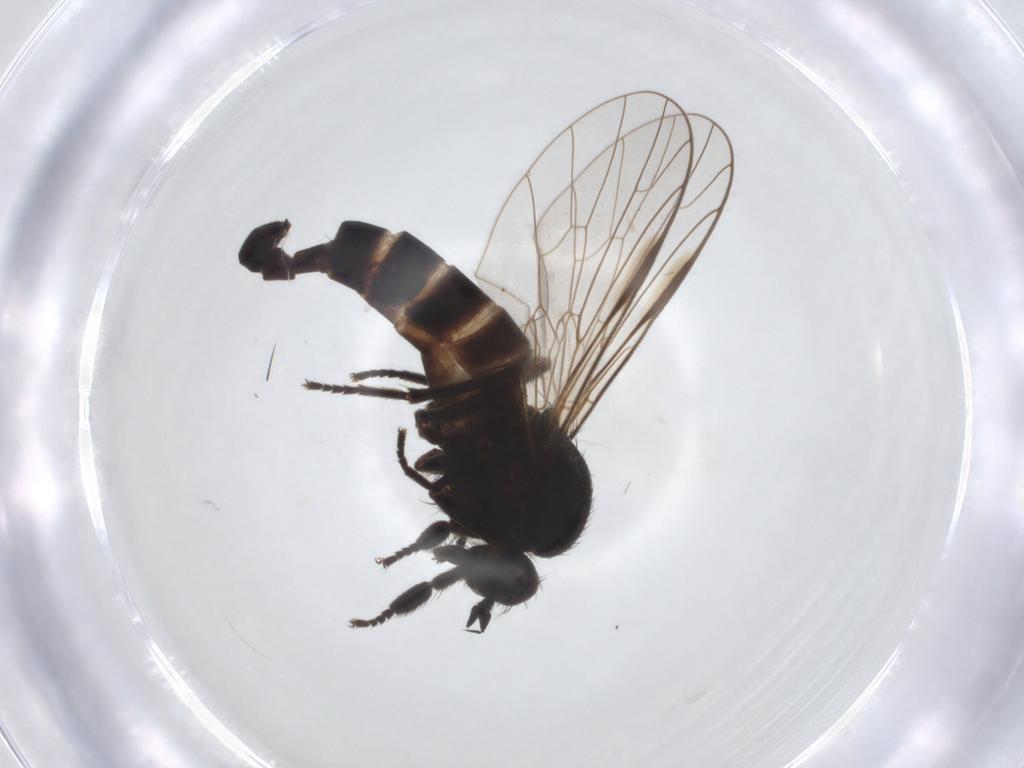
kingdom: Animalia
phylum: Arthropoda
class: Insecta
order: Diptera
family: Empididae
